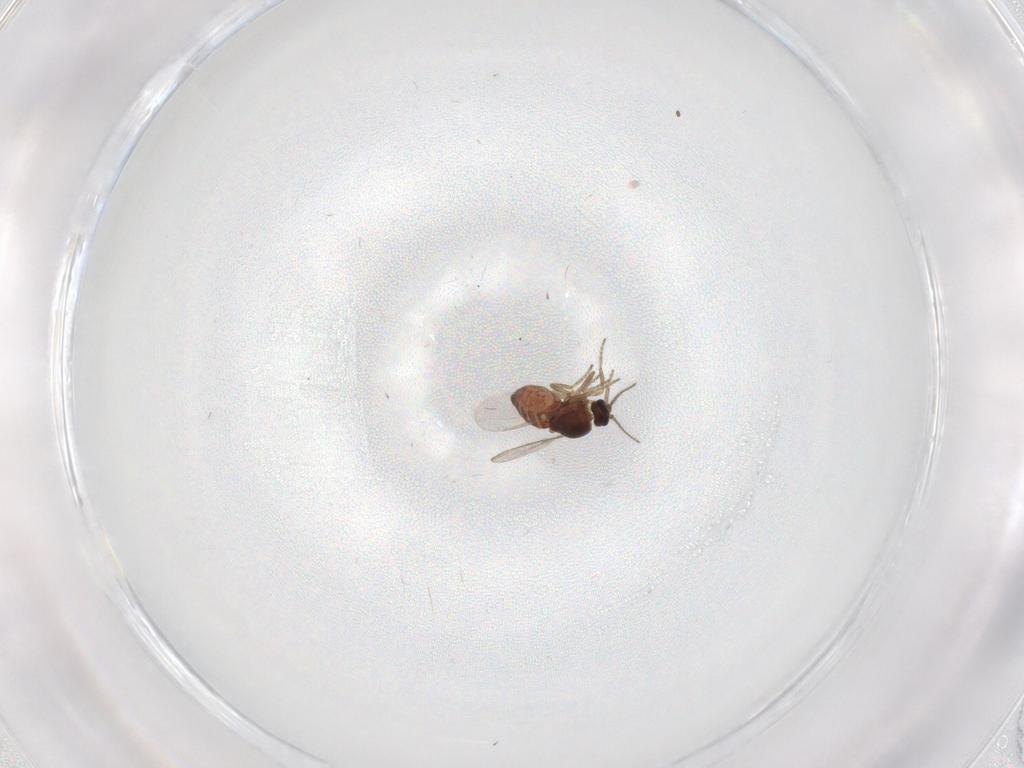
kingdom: Animalia
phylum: Arthropoda
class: Insecta
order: Diptera
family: Ceratopogonidae
